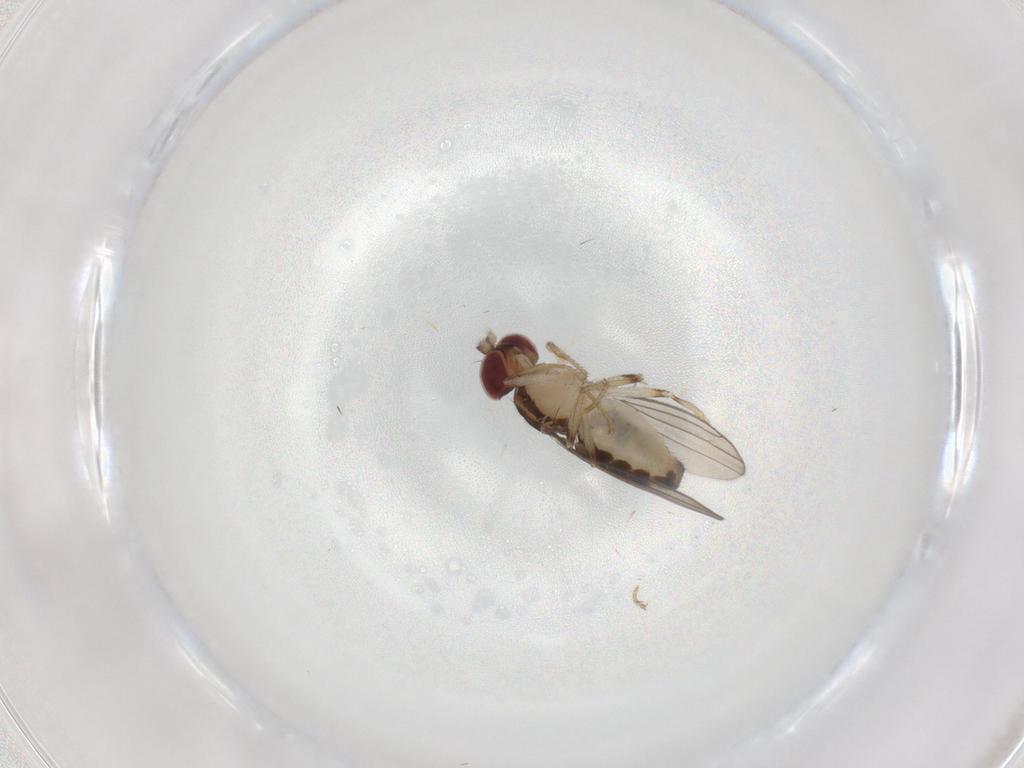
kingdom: Animalia
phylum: Arthropoda
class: Insecta
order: Diptera
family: Anthomyzidae
